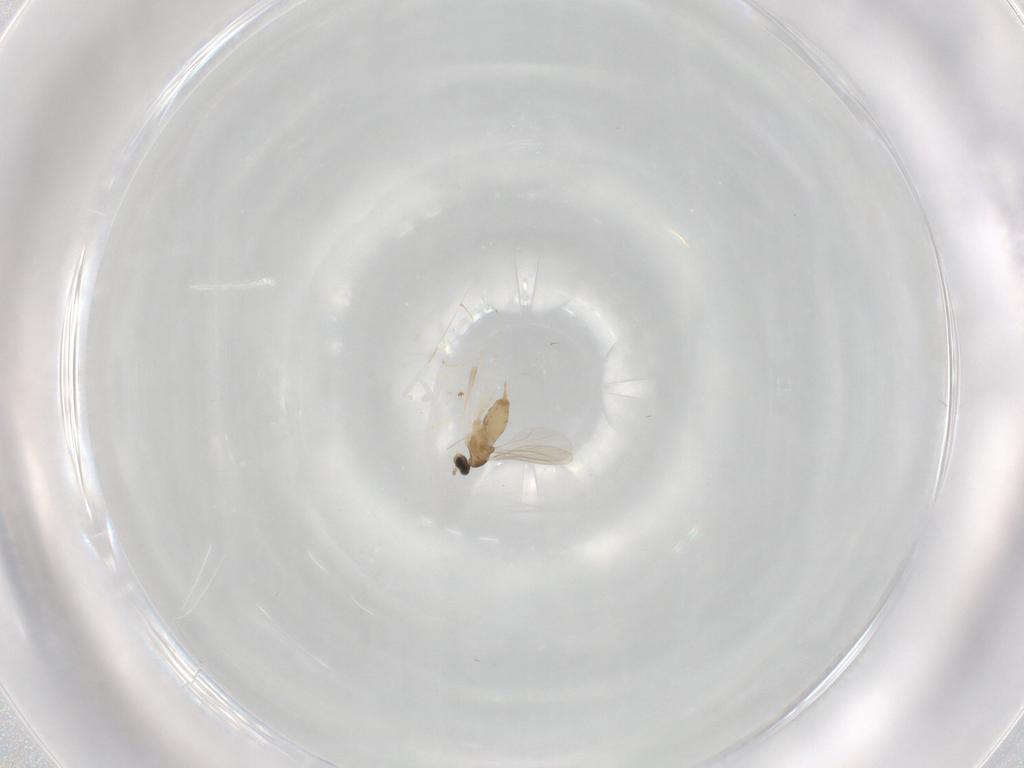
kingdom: Animalia
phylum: Arthropoda
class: Insecta
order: Diptera
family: Cecidomyiidae
